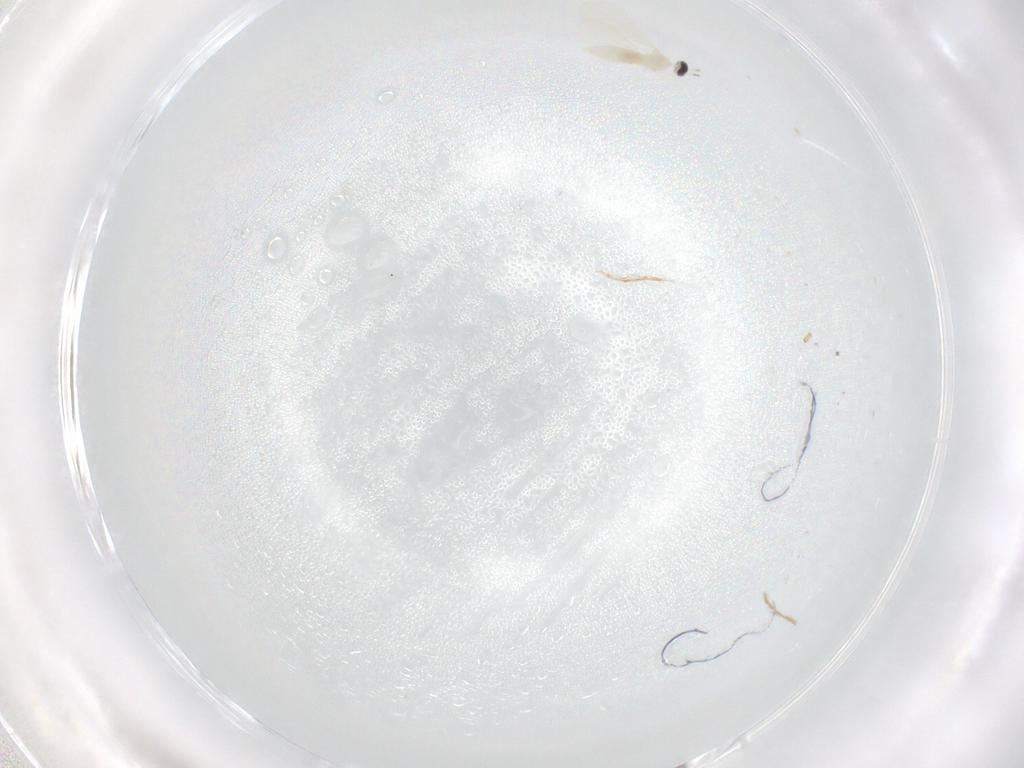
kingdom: Animalia
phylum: Arthropoda
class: Insecta
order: Diptera
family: Cecidomyiidae
